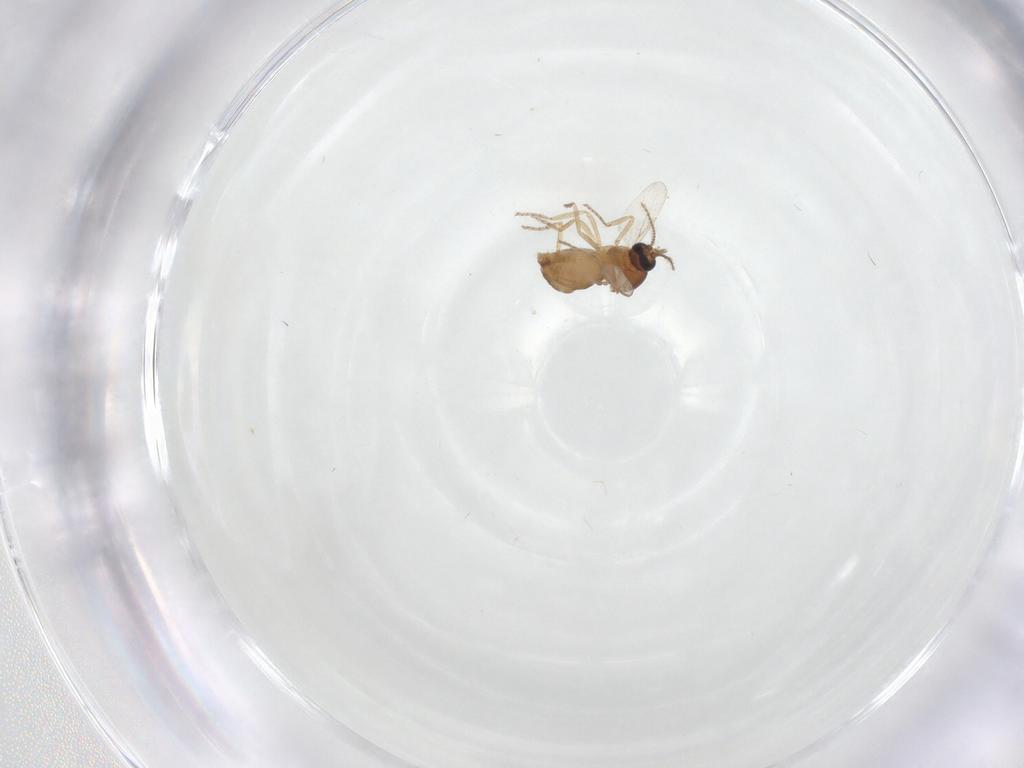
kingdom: Animalia
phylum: Arthropoda
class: Insecta
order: Diptera
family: Ceratopogonidae
